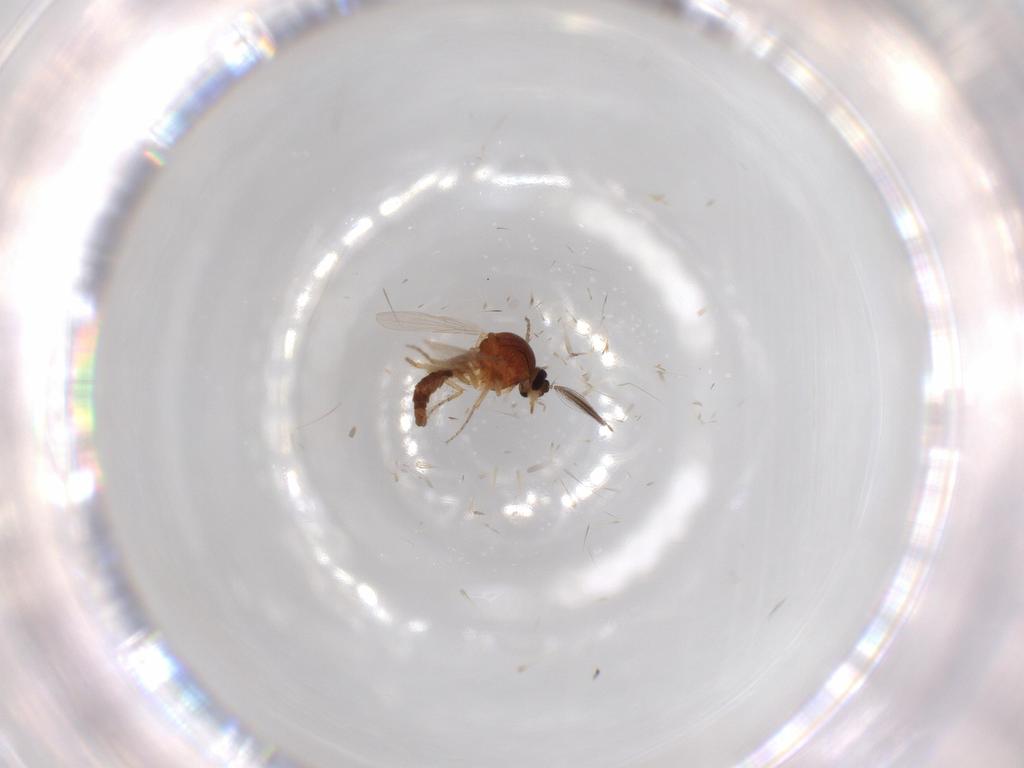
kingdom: Animalia
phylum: Arthropoda
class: Insecta
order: Diptera
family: Ceratopogonidae
